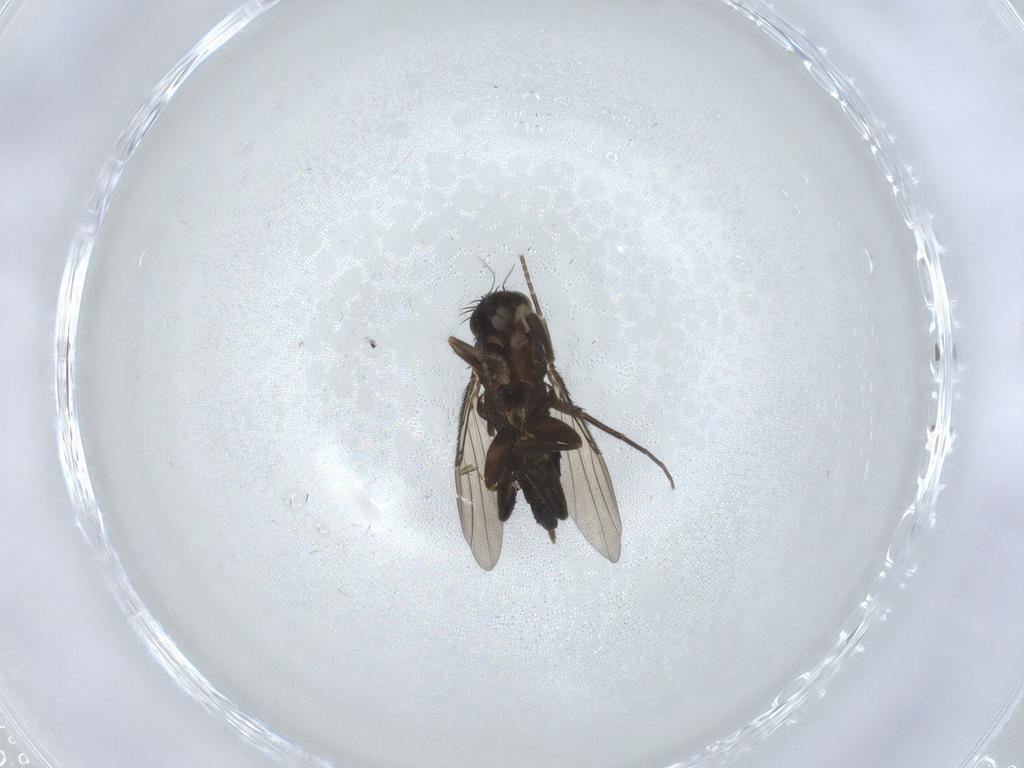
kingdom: Animalia
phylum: Arthropoda
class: Insecta
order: Diptera
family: Phoridae
